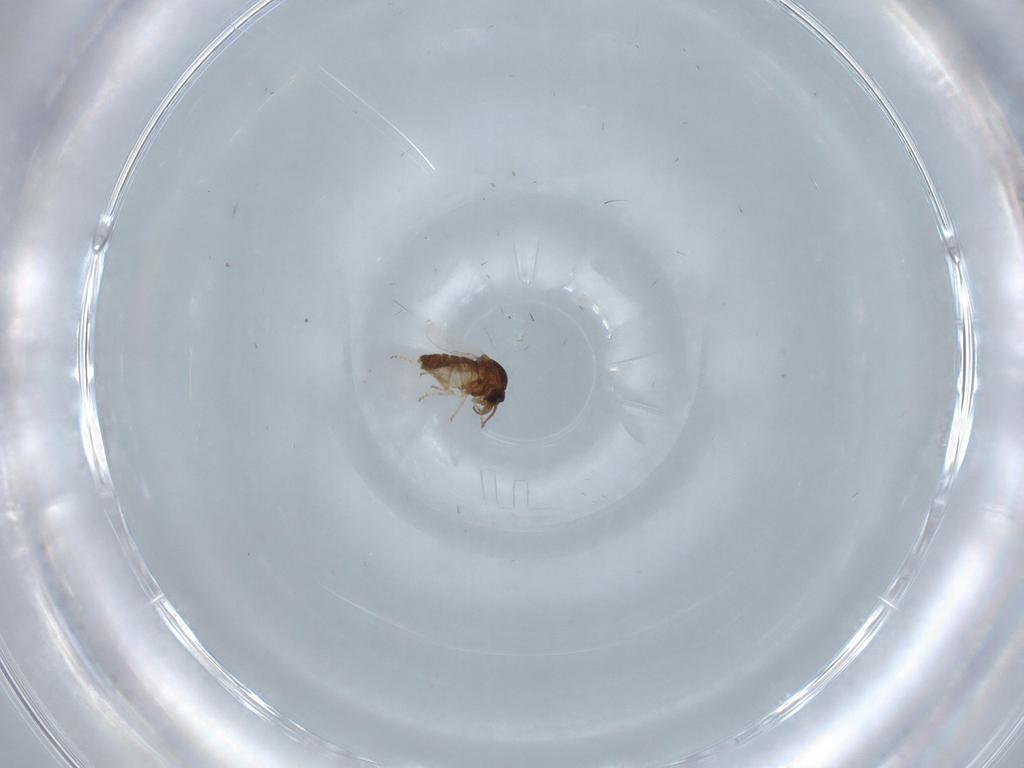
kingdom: Animalia
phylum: Arthropoda
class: Insecta
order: Diptera
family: Ceratopogonidae
